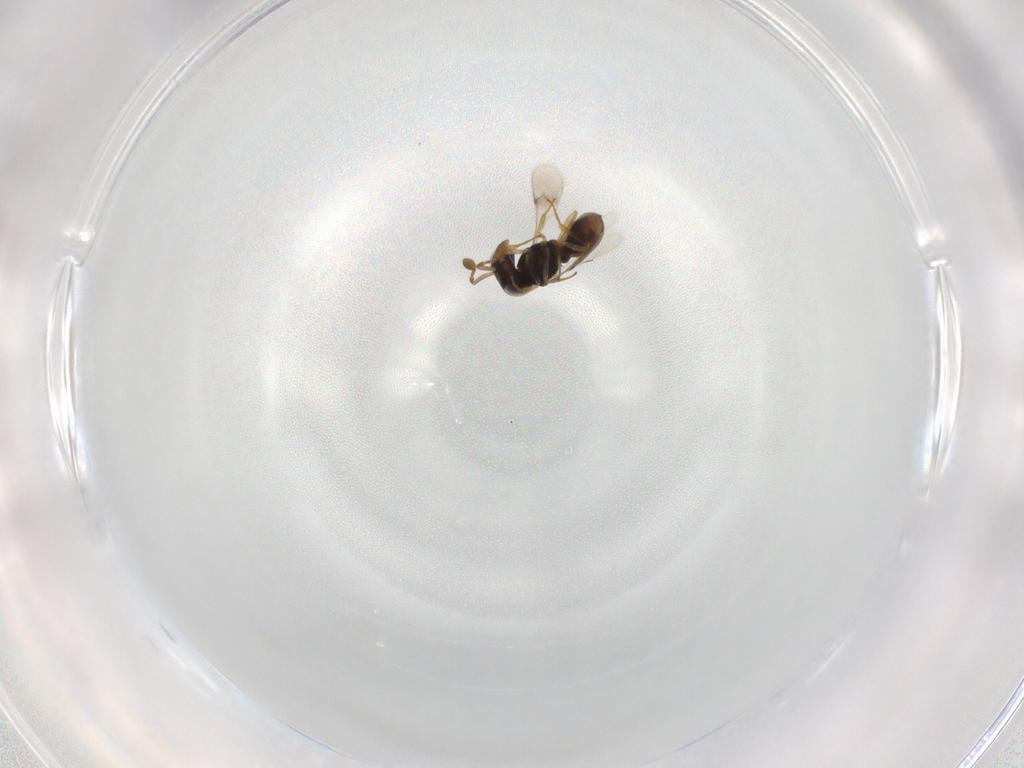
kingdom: Animalia
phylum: Arthropoda
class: Insecta
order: Hymenoptera
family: Scelionidae
